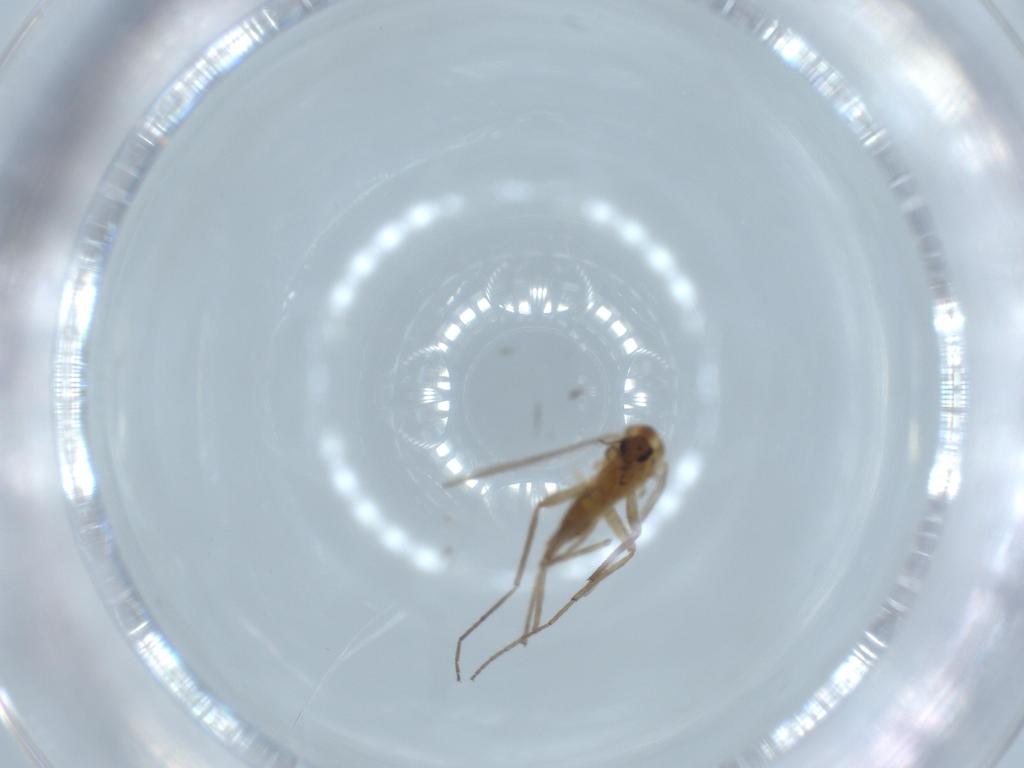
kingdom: Animalia
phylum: Arthropoda
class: Insecta
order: Diptera
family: Chironomidae
